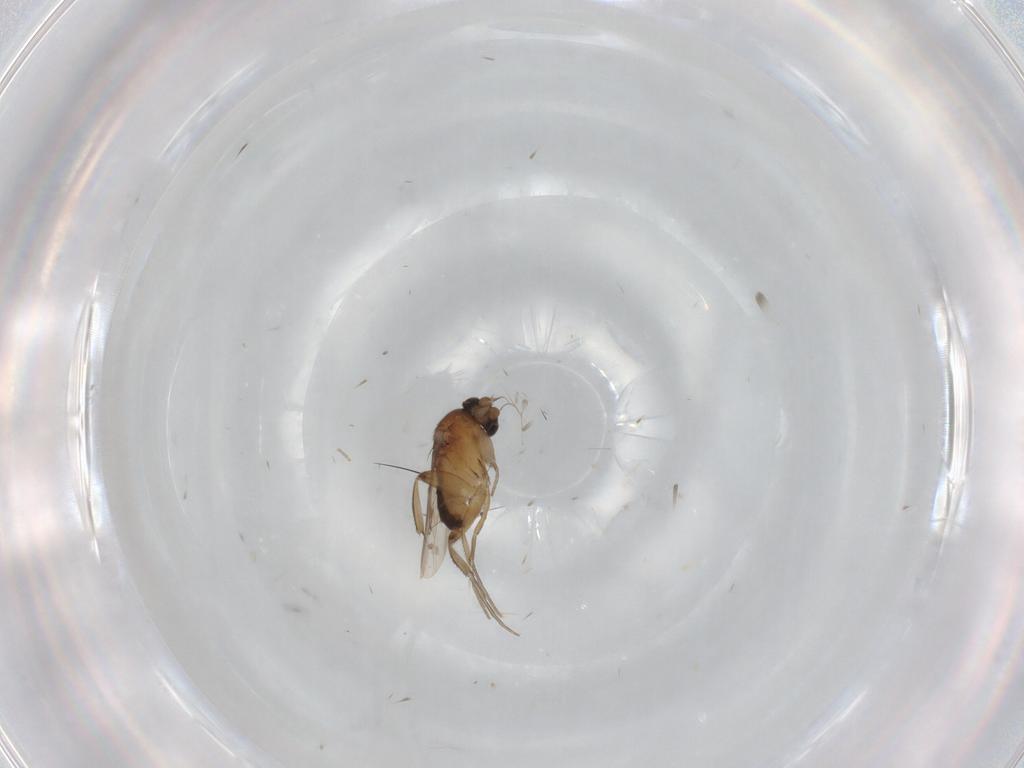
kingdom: Animalia
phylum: Arthropoda
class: Insecta
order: Diptera
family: Phoridae
